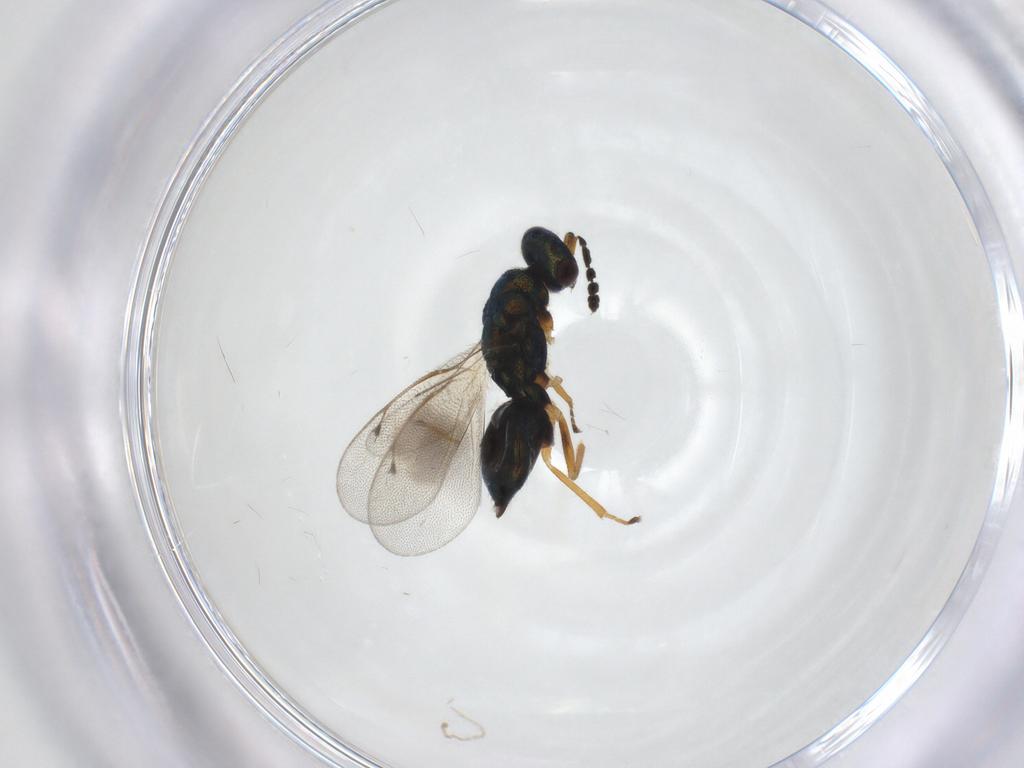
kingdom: Animalia
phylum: Arthropoda
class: Insecta
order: Hymenoptera
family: Eulophidae
